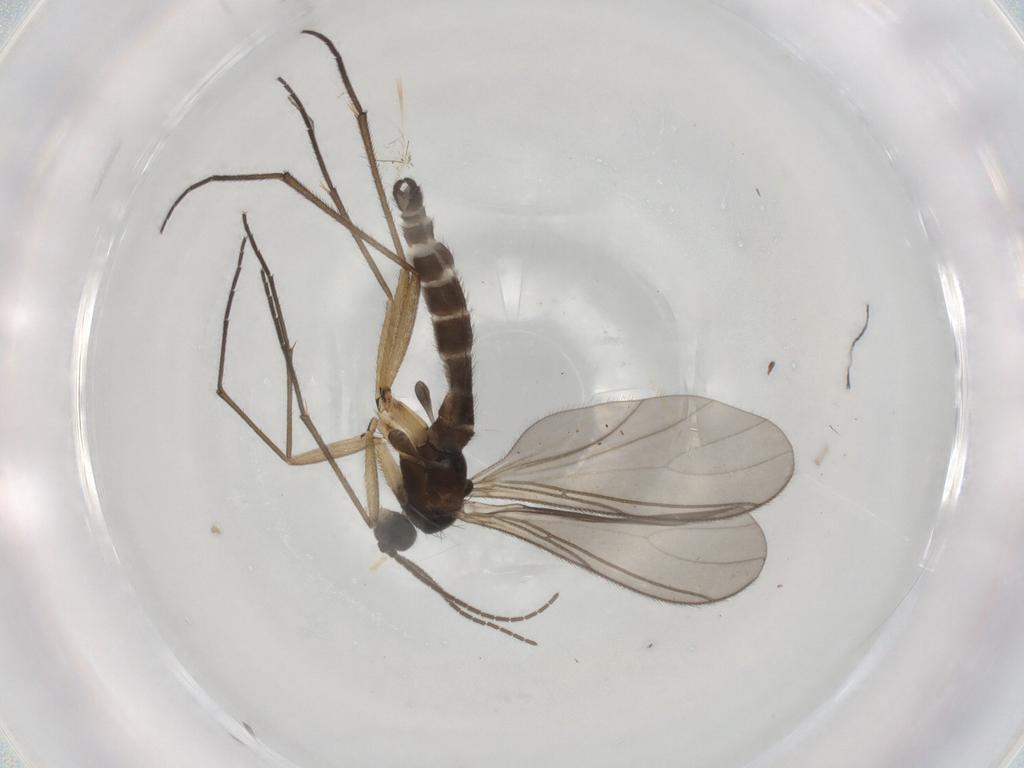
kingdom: Animalia
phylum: Arthropoda
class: Insecta
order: Diptera
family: Sciaridae
